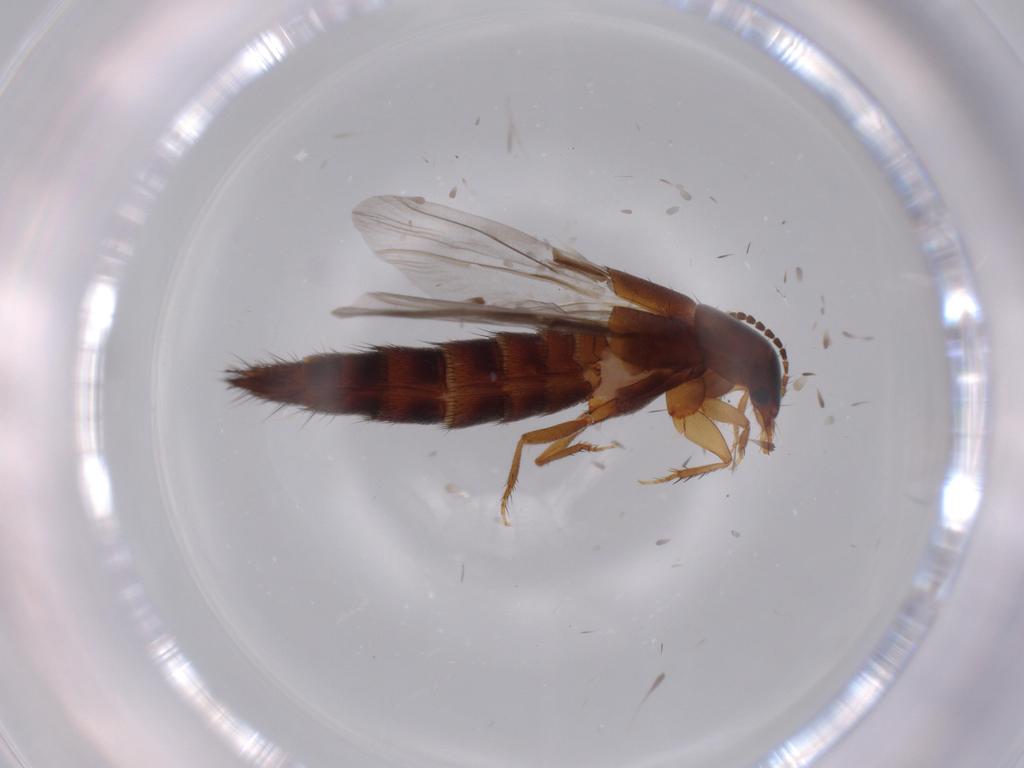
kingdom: Animalia
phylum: Arthropoda
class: Insecta
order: Coleoptera
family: Staphylinidae
